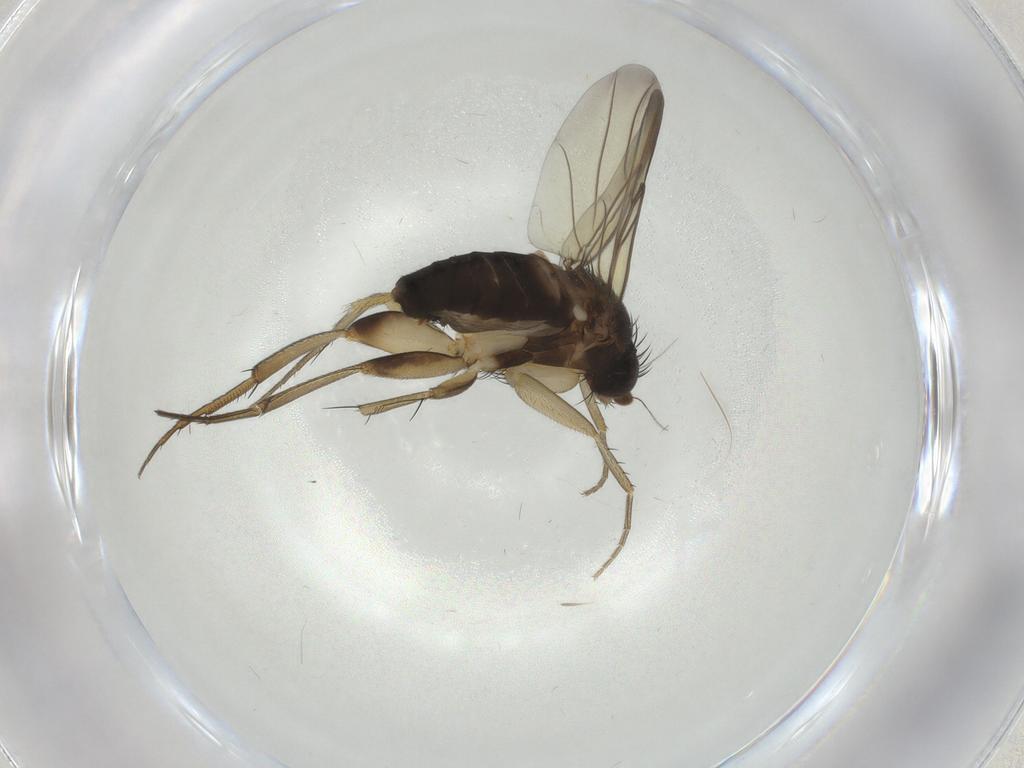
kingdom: Animalia
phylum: Arthropoda
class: Insecta
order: Diptera
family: Phoridae
